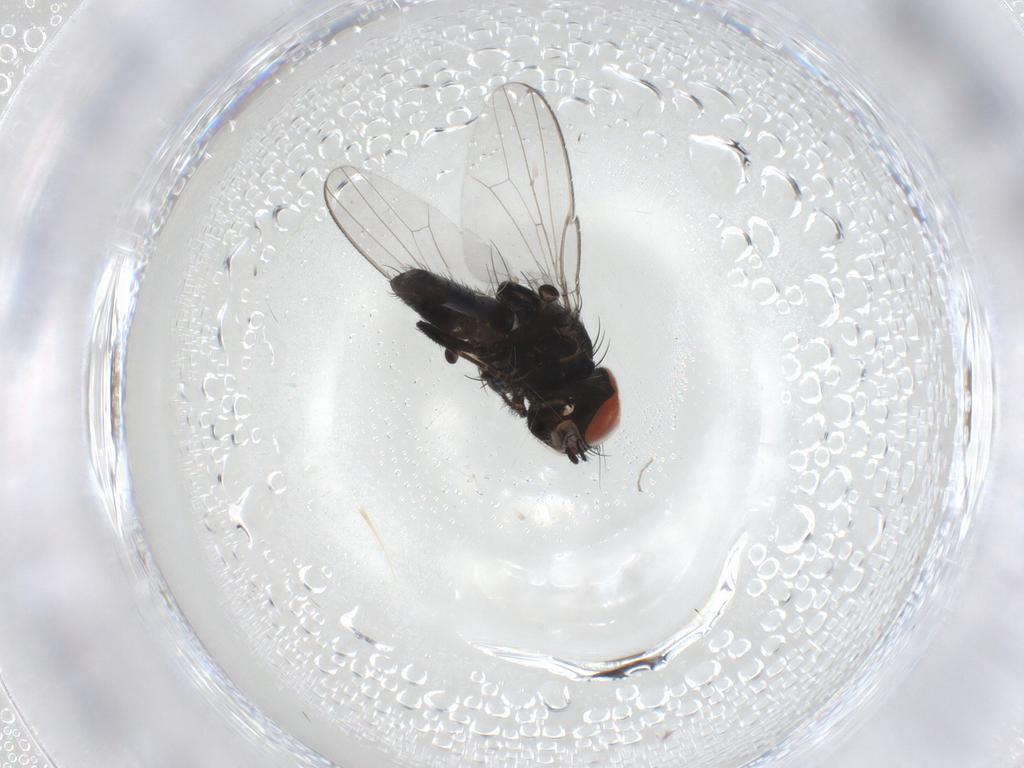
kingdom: Animalia
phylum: Arthropoda
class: Insecta
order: Diptera
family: Milichiidae
